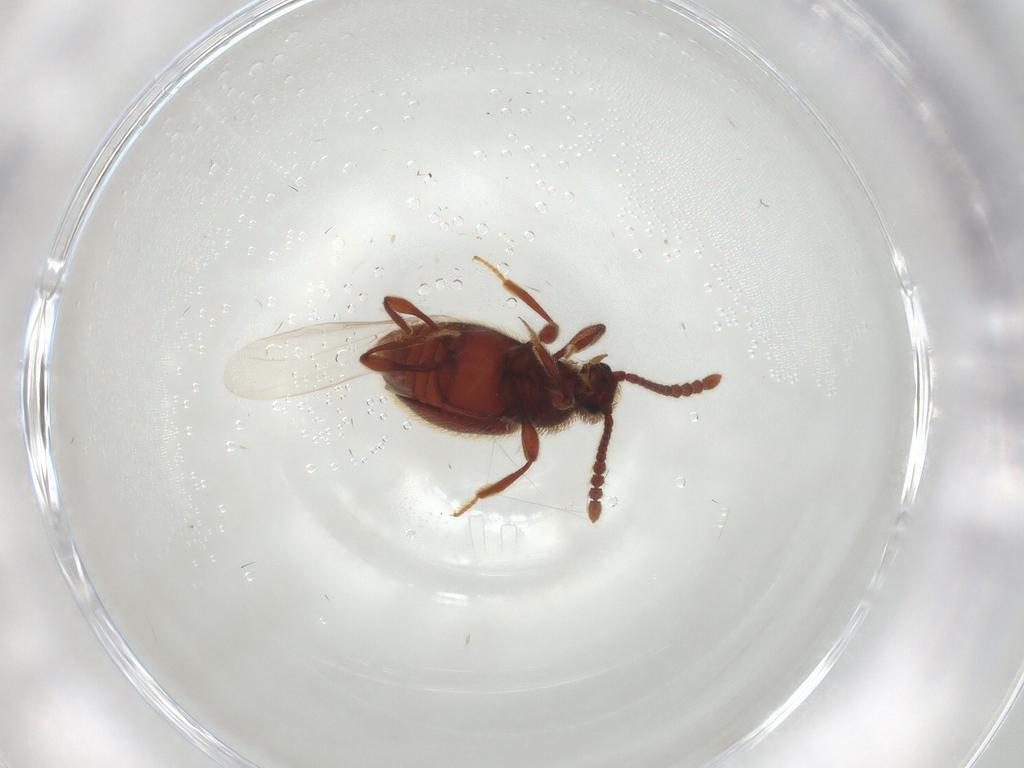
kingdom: Animalia
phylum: Arthropoda
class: Insecta
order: Coleoptera
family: Staphylinidae
